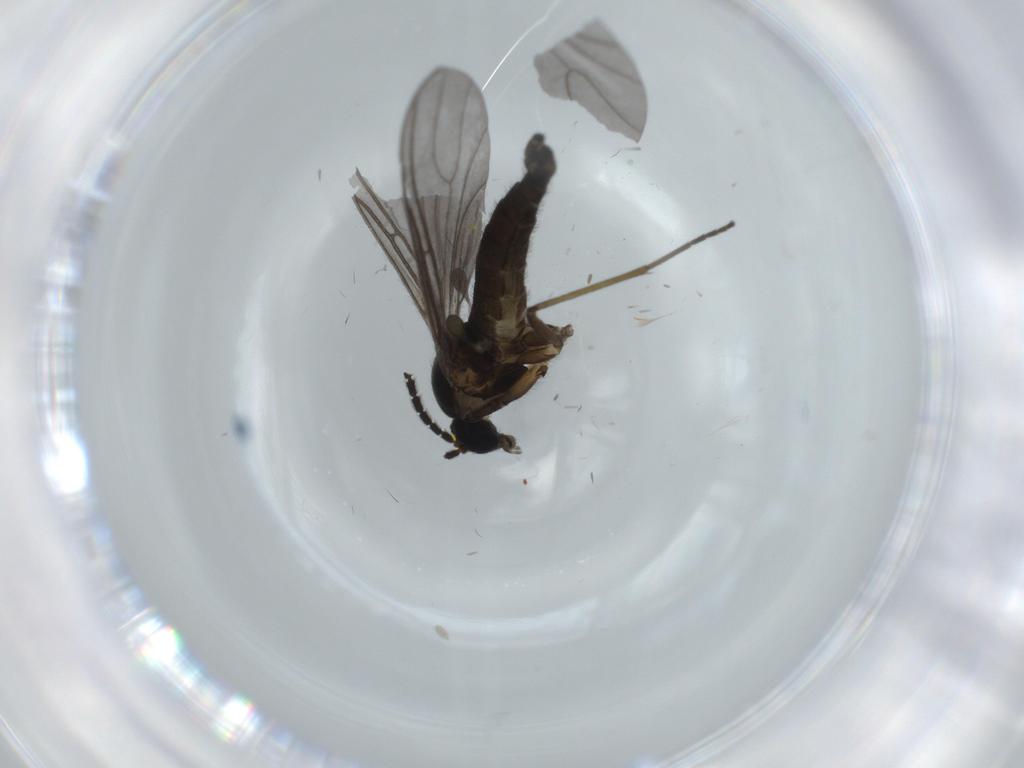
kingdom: Animalia
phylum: Arthropoda
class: Insecta
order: Diptera
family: Sciaridae
